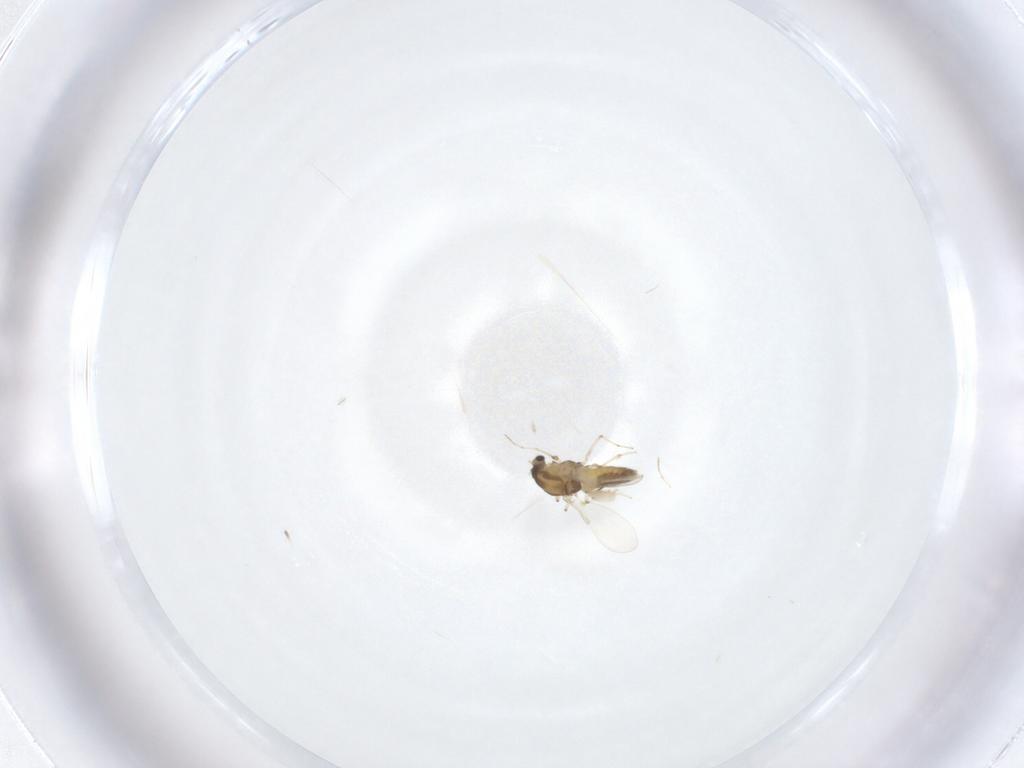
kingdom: Animalia
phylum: Arthropoda
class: Insecta
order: Diptera
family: Chironomidae
